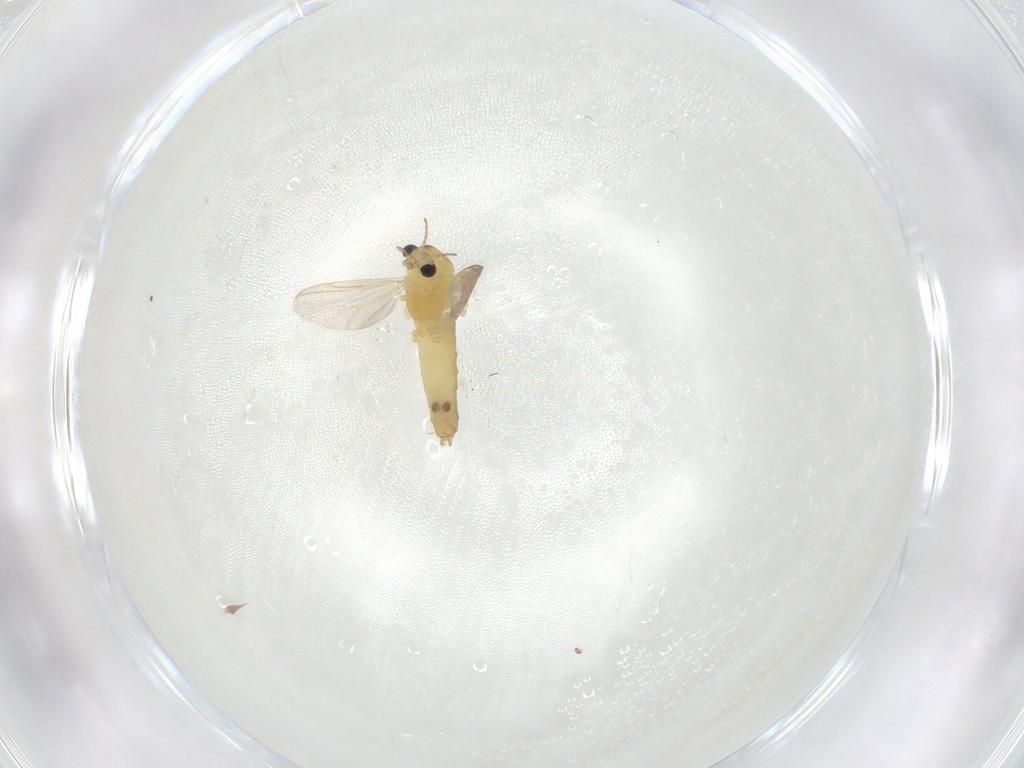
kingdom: Animalia
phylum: Arthropoda
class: Insecta
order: Diptera
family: Chironomidae
